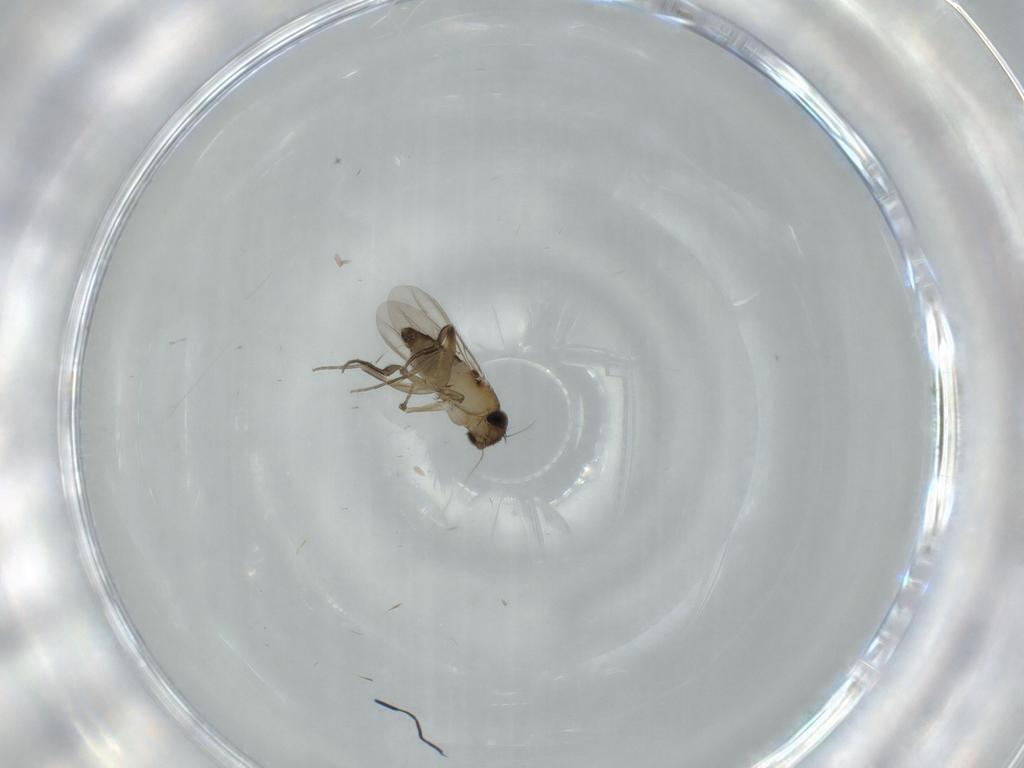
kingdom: Animalia
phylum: Arthropoda
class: Insecta
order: Diptera
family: Phoridae
